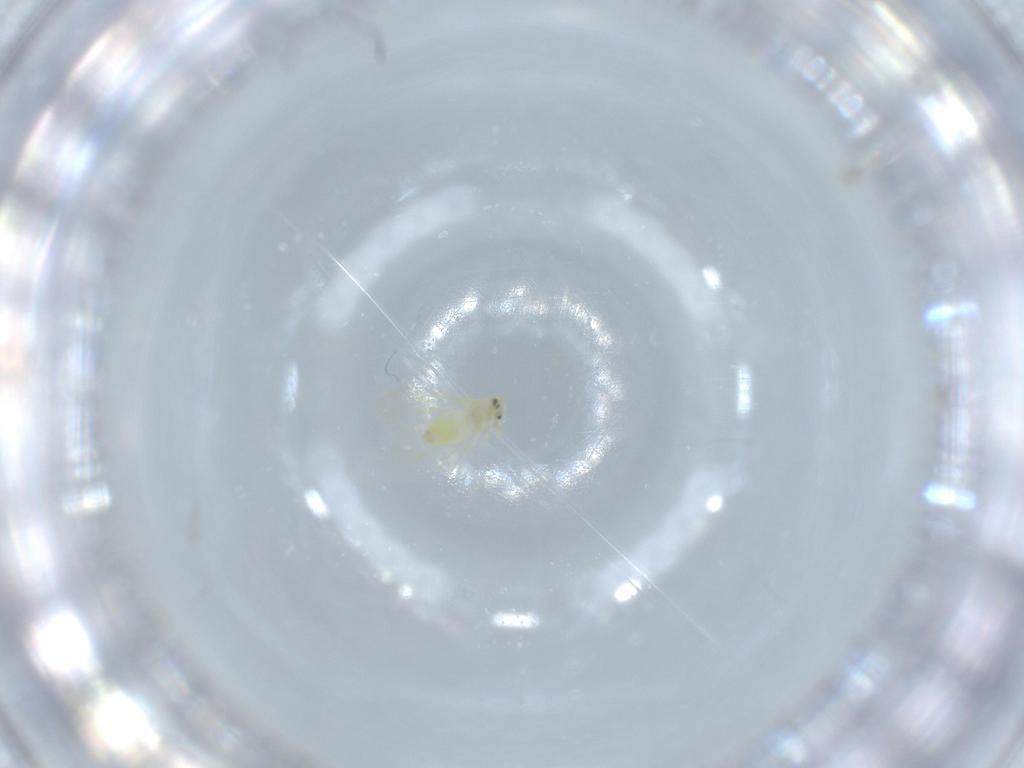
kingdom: Animalia
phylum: Arthropoda
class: Insecta
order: Hemiptera
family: Aleyrodidae
